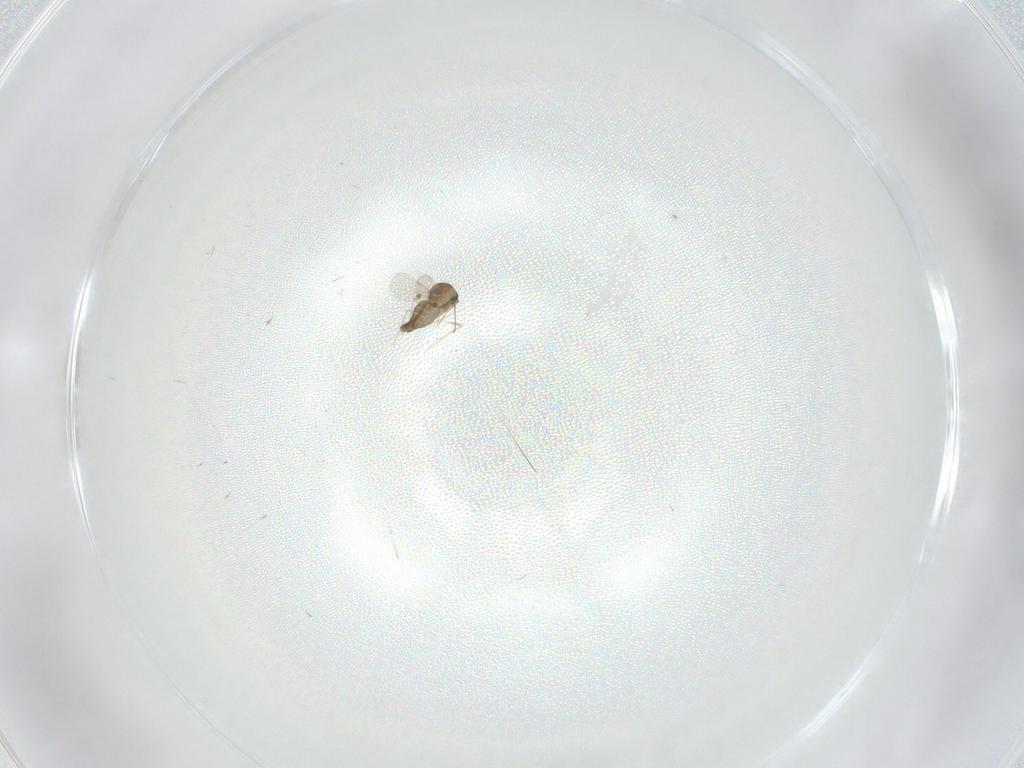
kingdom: Animalia
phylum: Arthropoda
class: Insecta
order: Diptera
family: Ceratopogonidae
